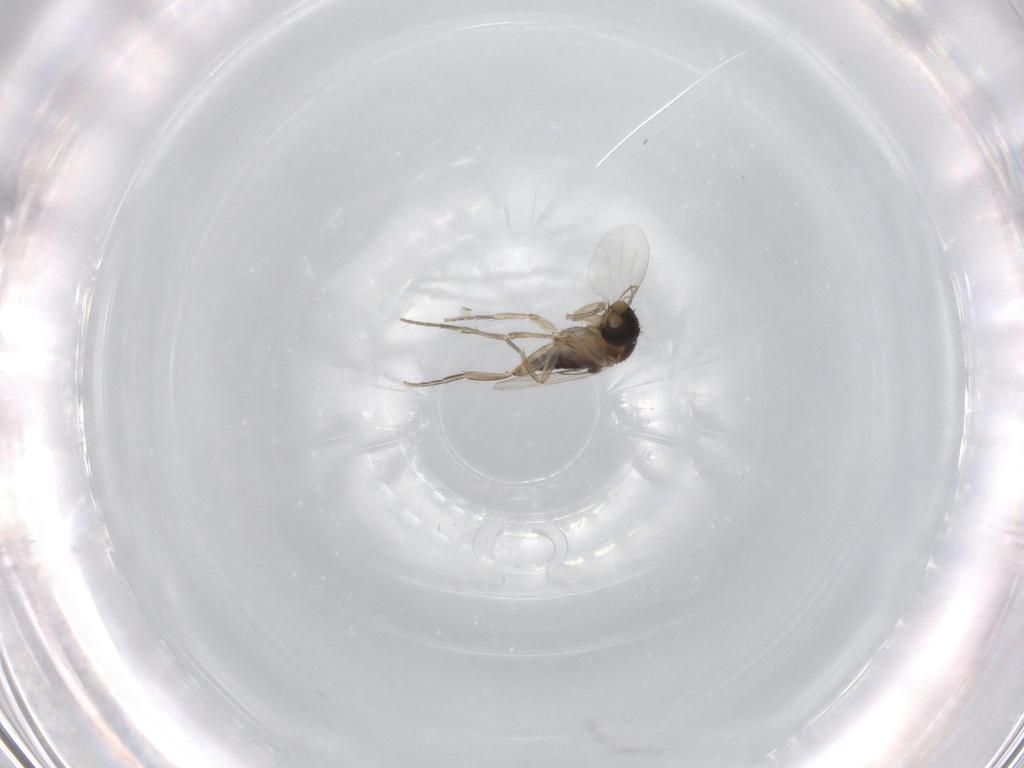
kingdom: Animalia
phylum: Arthropoda
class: Insecta
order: Diptera
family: Phoridae
